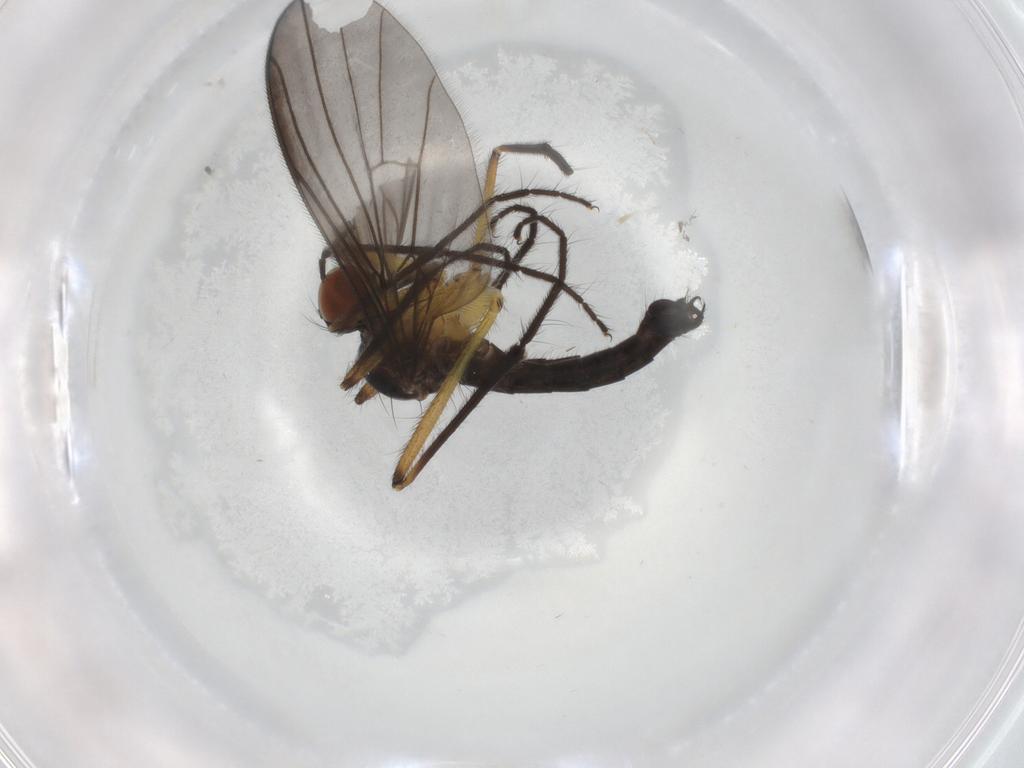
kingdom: Animalia
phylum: Arthropoda
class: Insecta
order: Diptera
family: Empididae
